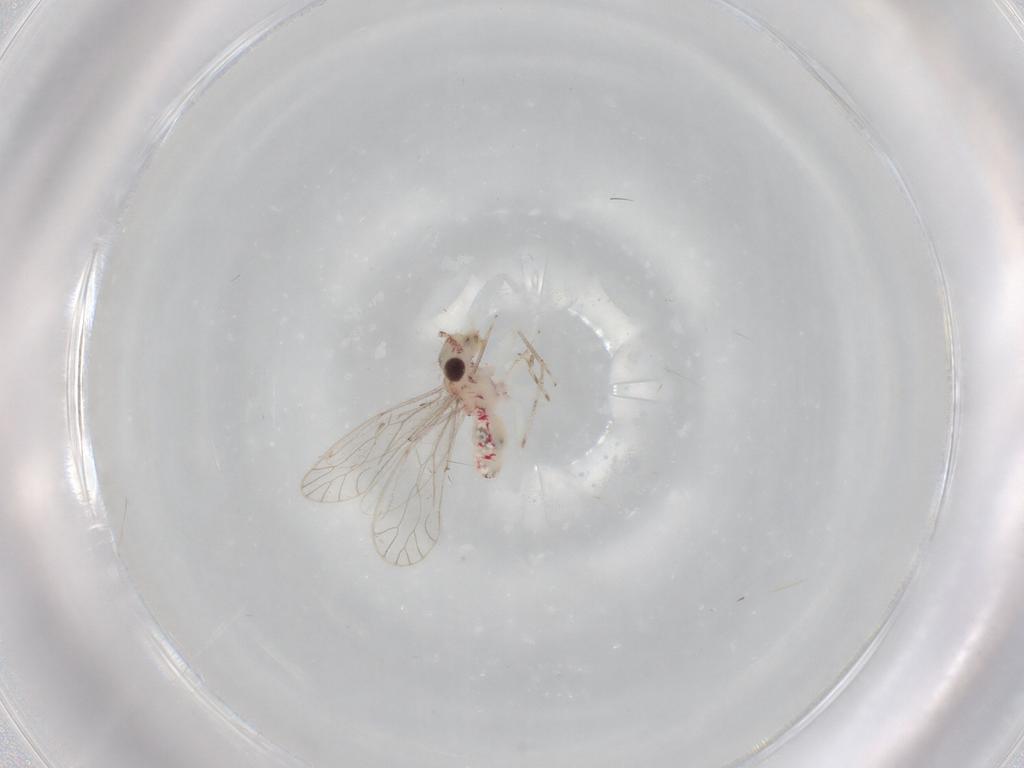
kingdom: Animalia
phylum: Arthropoda
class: Insecta
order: Psocodea
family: Caeciliusidae
